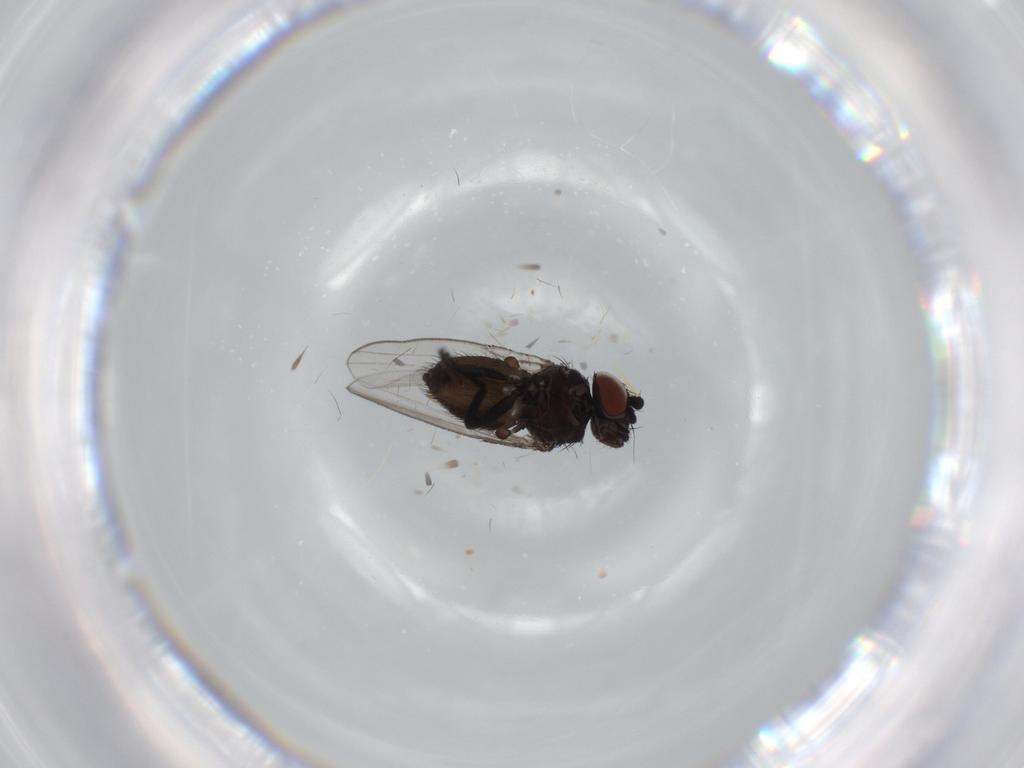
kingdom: Animalia
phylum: Arthropoda
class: Insecta
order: Diptera
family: Milichiidae
